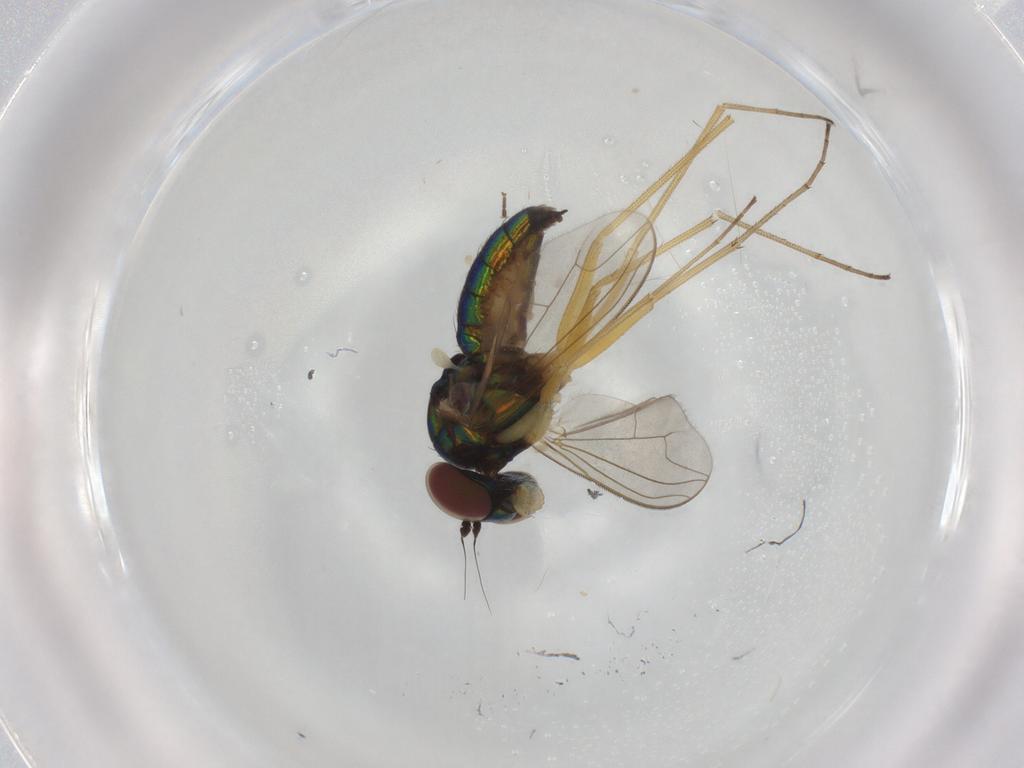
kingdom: Animalia
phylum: Arthropoda
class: Insecta
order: Diptera
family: Dolichopodidae
